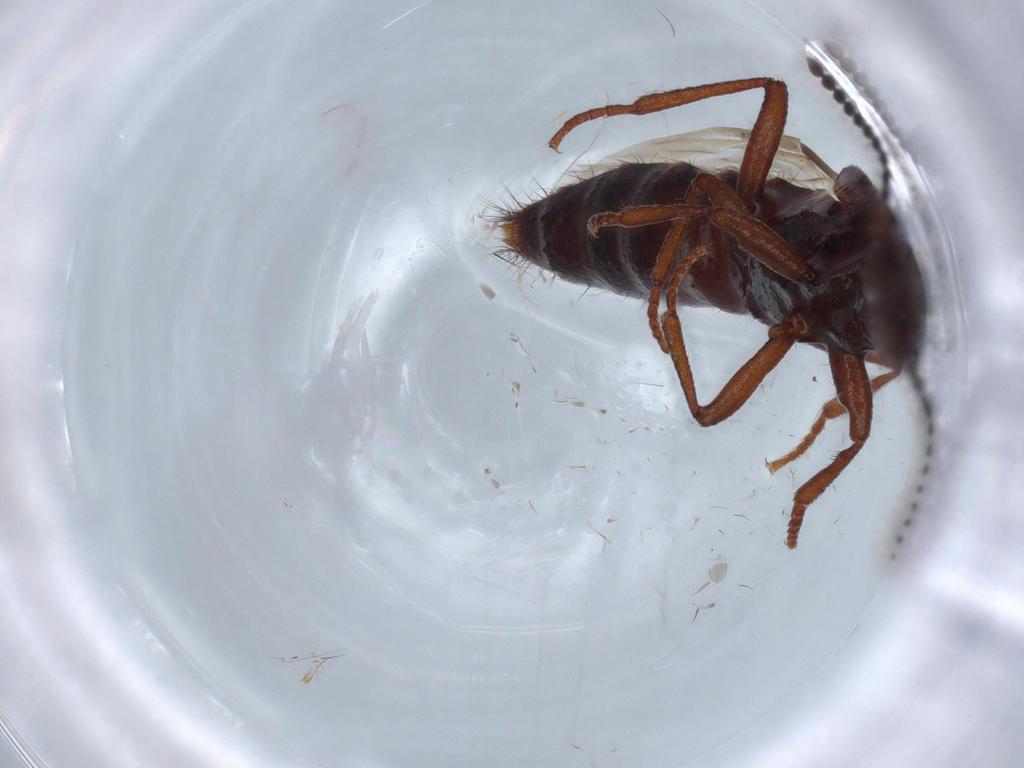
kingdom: Animalia
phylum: Arthropoda
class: Insecta
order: Coleoptera
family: Staphylinidae
